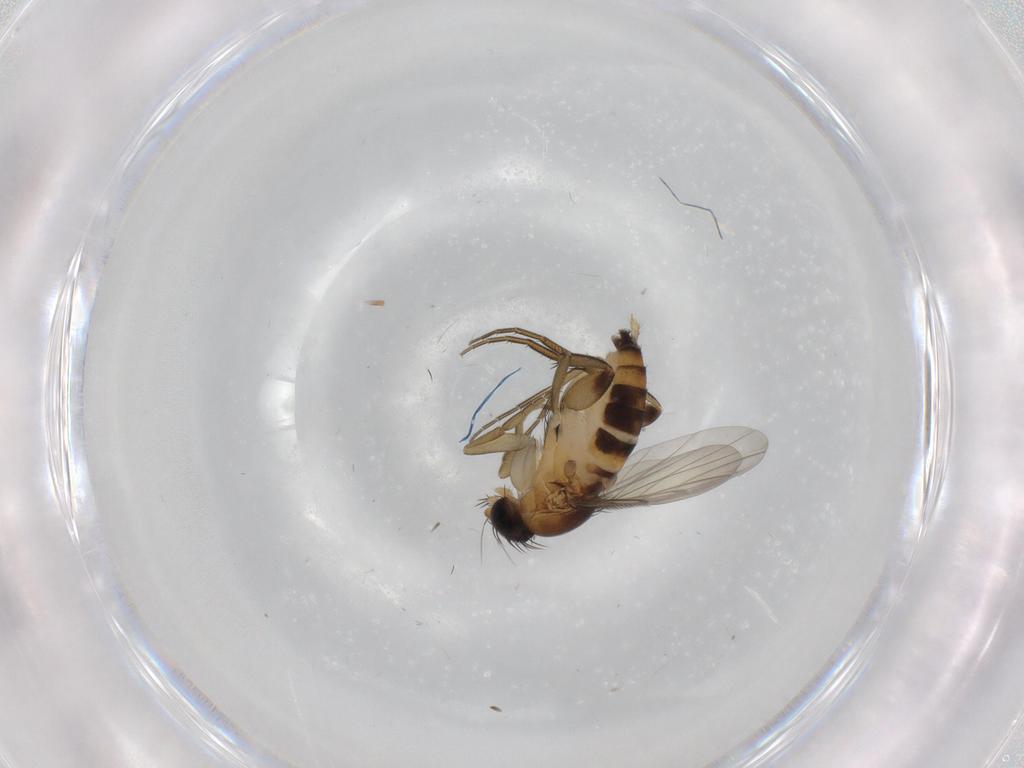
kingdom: Animalia
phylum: Arthropoda
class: Insecta
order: Diptera
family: Phoridae
